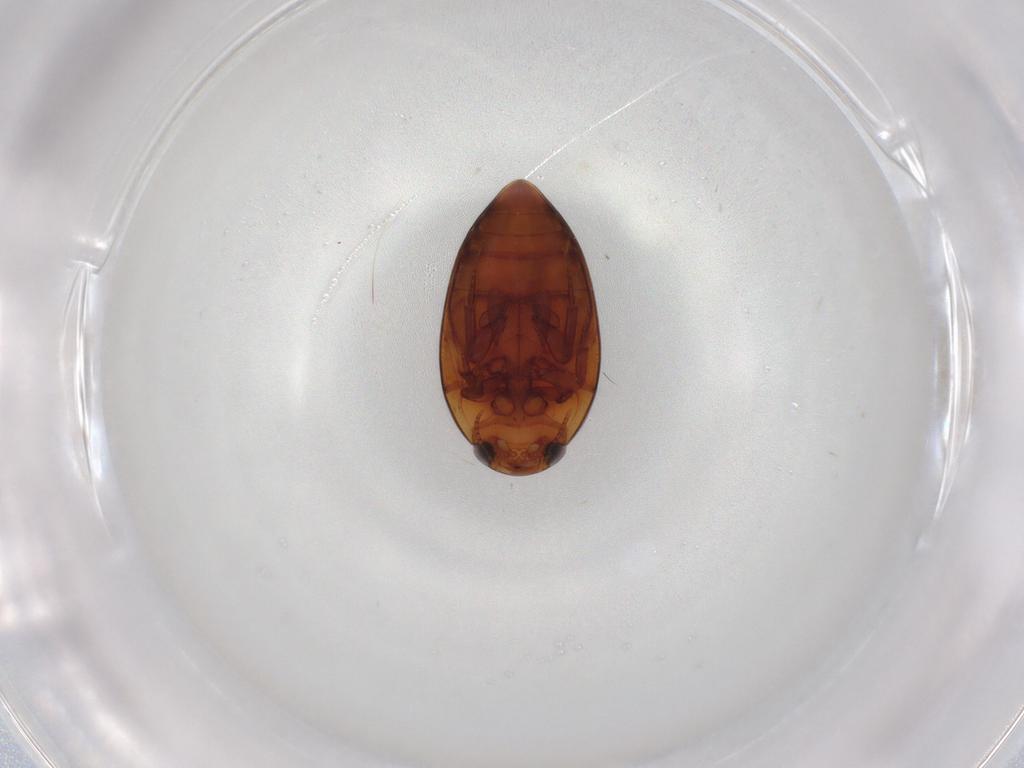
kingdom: Animalia
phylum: Arthropoda
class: Insecta
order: Coleoptera
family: Noteridae
